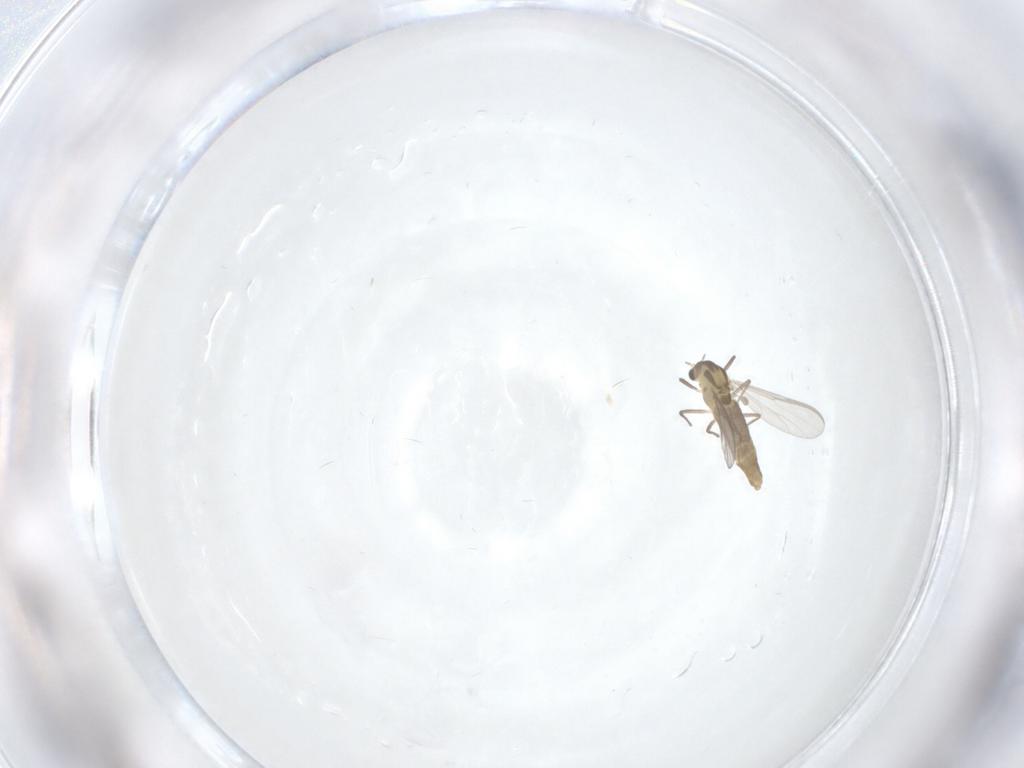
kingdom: Animalia
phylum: Arthropoda
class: Insecta
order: Diptera
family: Chironomidae
